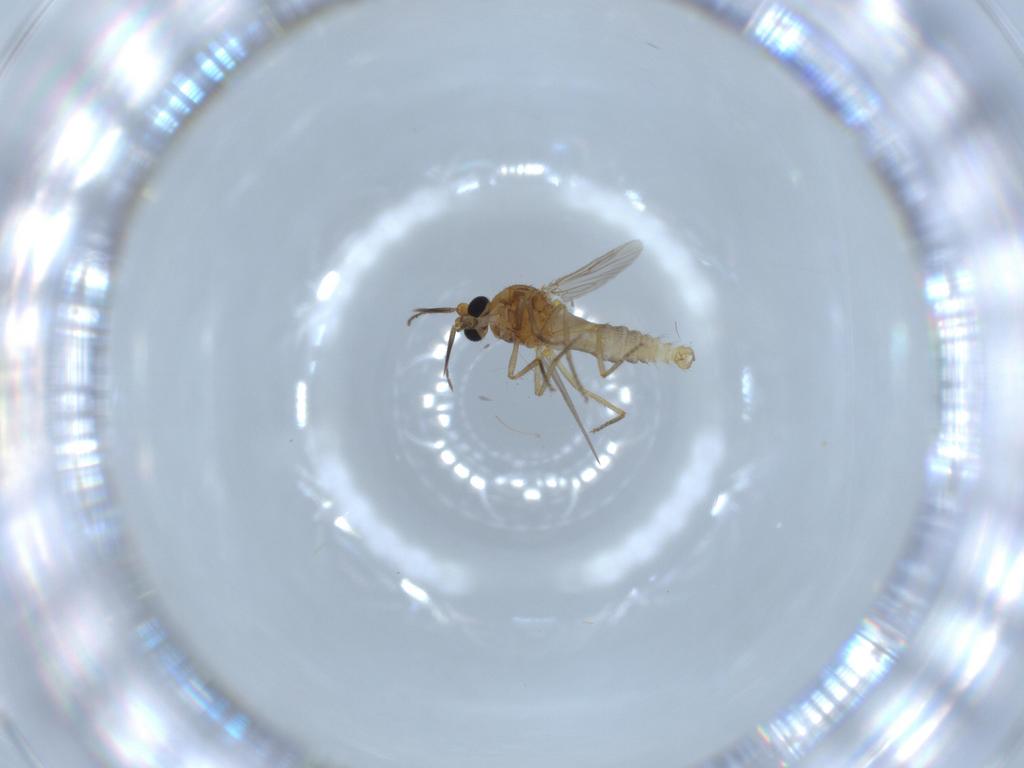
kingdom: Animalia
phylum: Arthropoda
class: Insecta
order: Diptera
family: Ceratopogonidae
